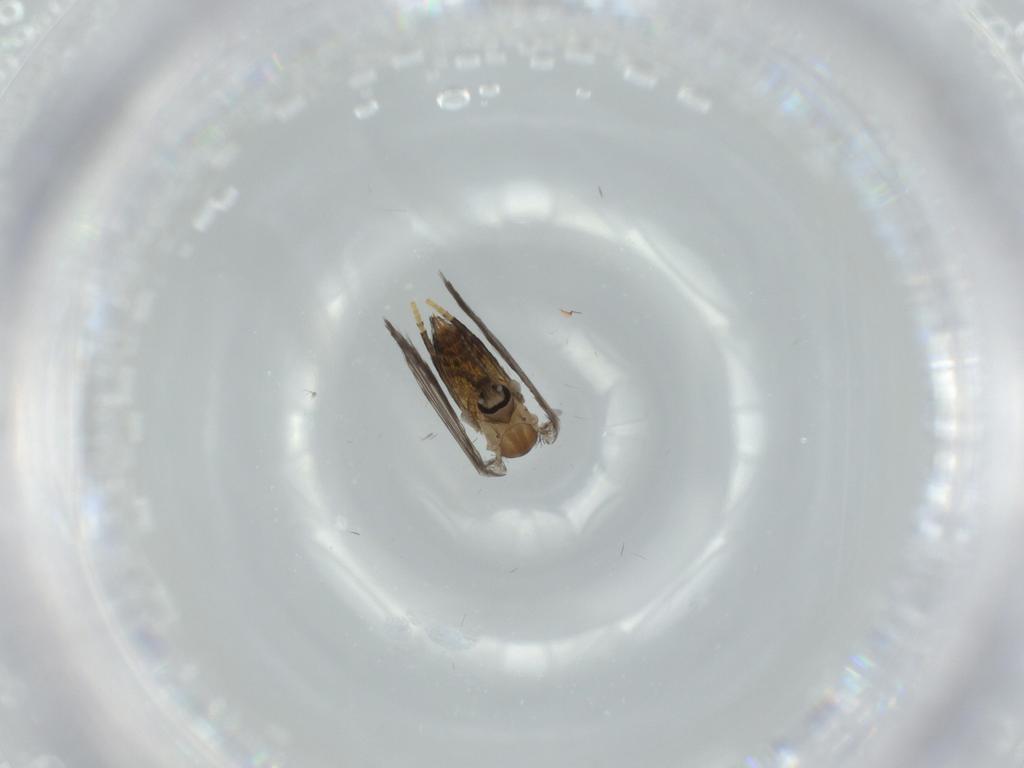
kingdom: Animalia
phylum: Arthropoda
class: Insecta
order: Diptera
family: Psychodidae
